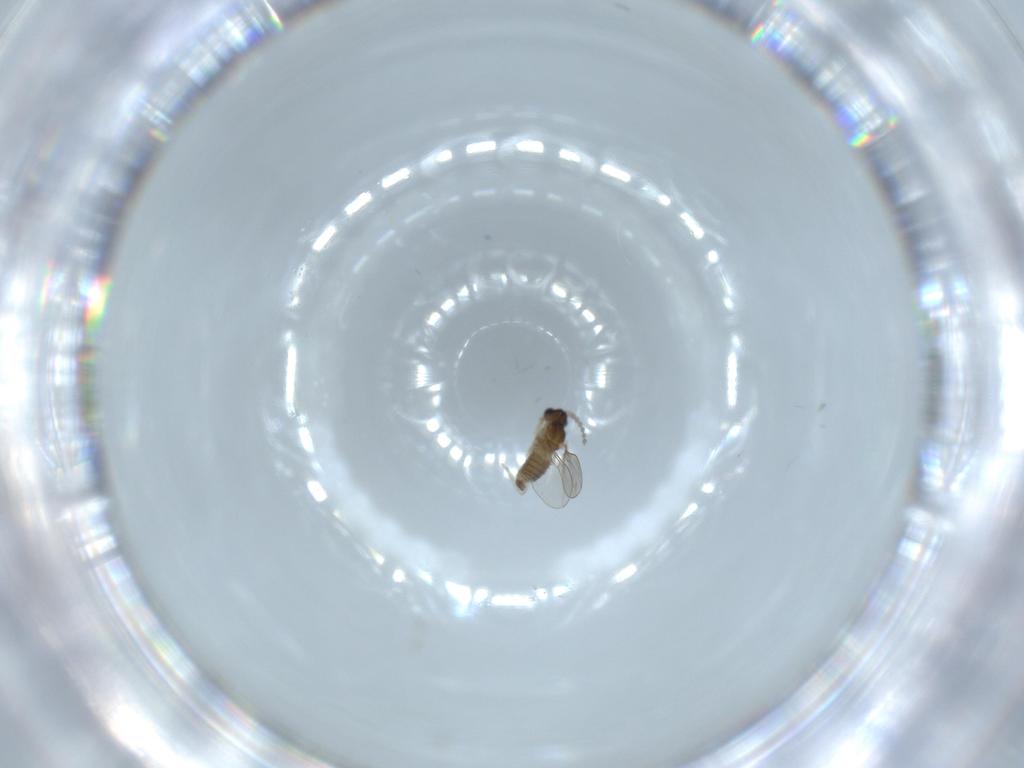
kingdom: Animalia
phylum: Arthropoda
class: Insecta
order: Diptera
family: Cecidomyiidae
